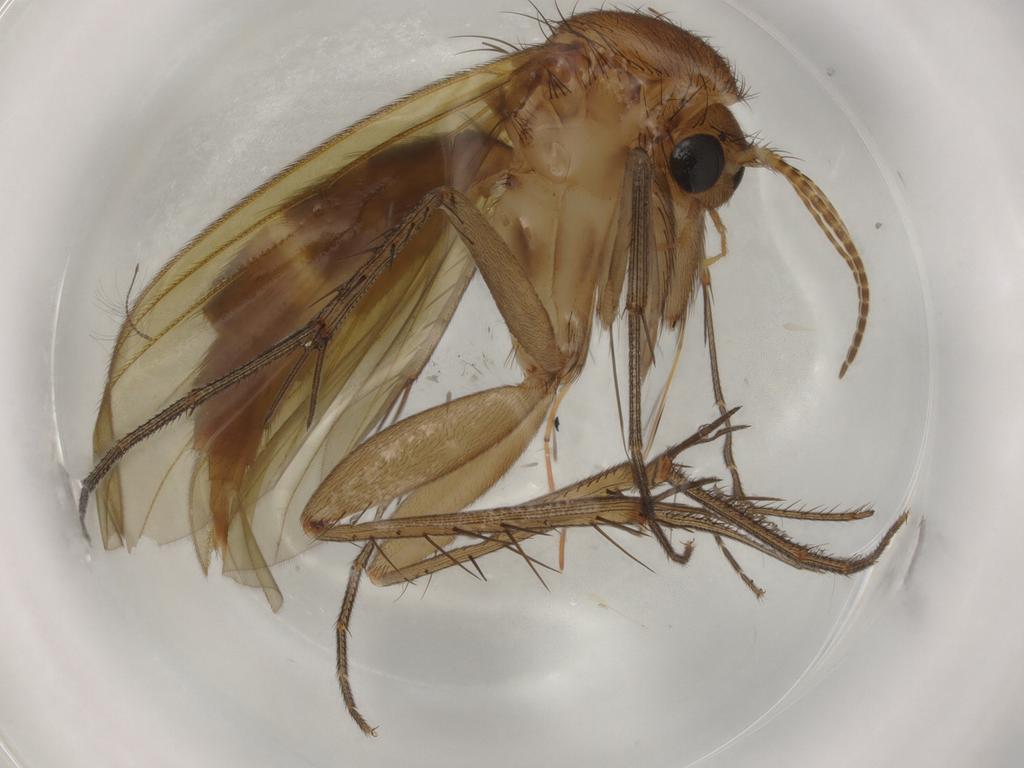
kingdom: Animalia
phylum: Arthropoda
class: Insecta
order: Diptera
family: Mycetophilidae
